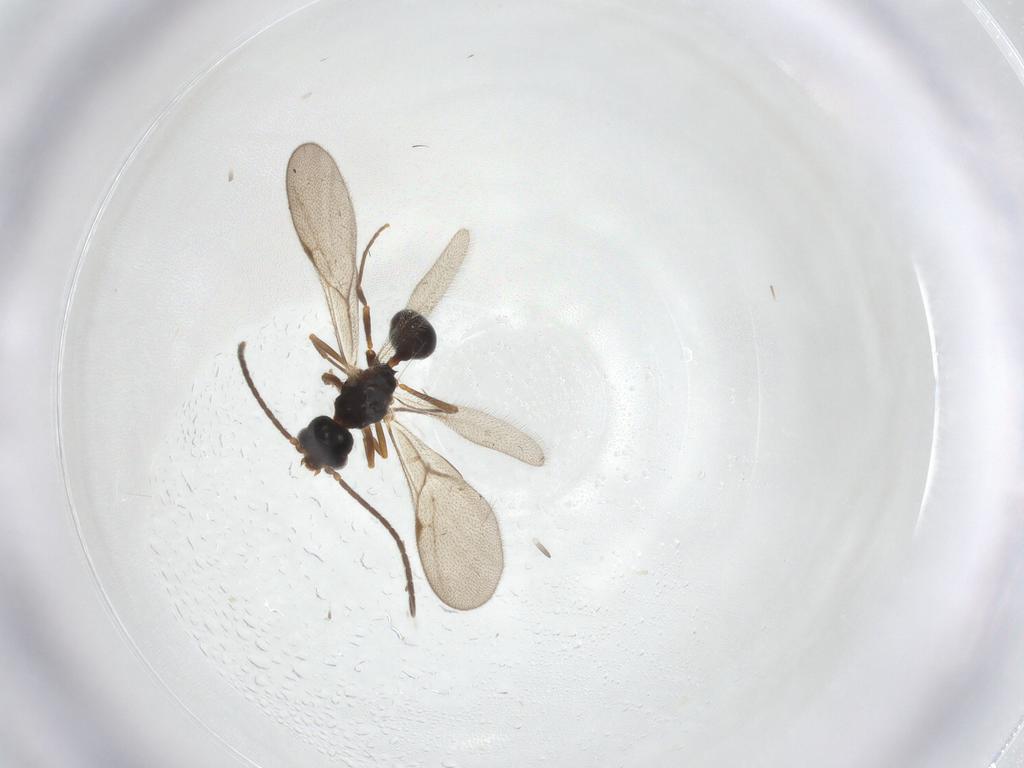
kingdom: Animalia
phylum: Arthropoda
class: Insecta
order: Hymenoptera
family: Formicidae
